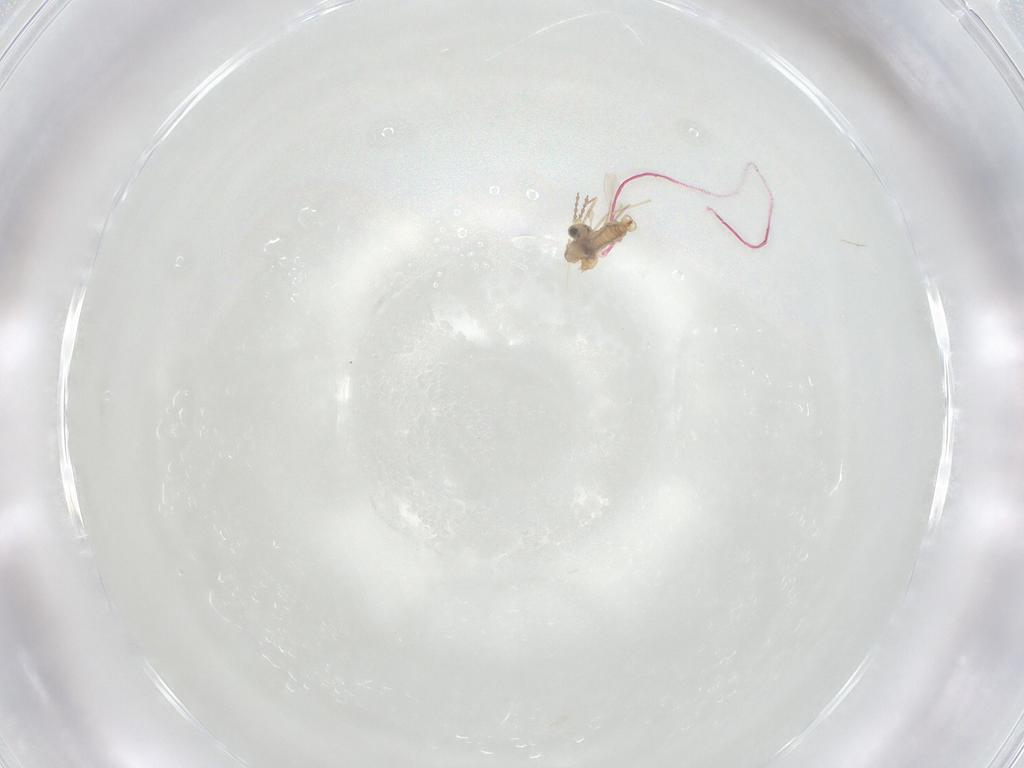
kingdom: Animalia
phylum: Arthropoda
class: Insecta
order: Diptera
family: Cecidomyiidae
